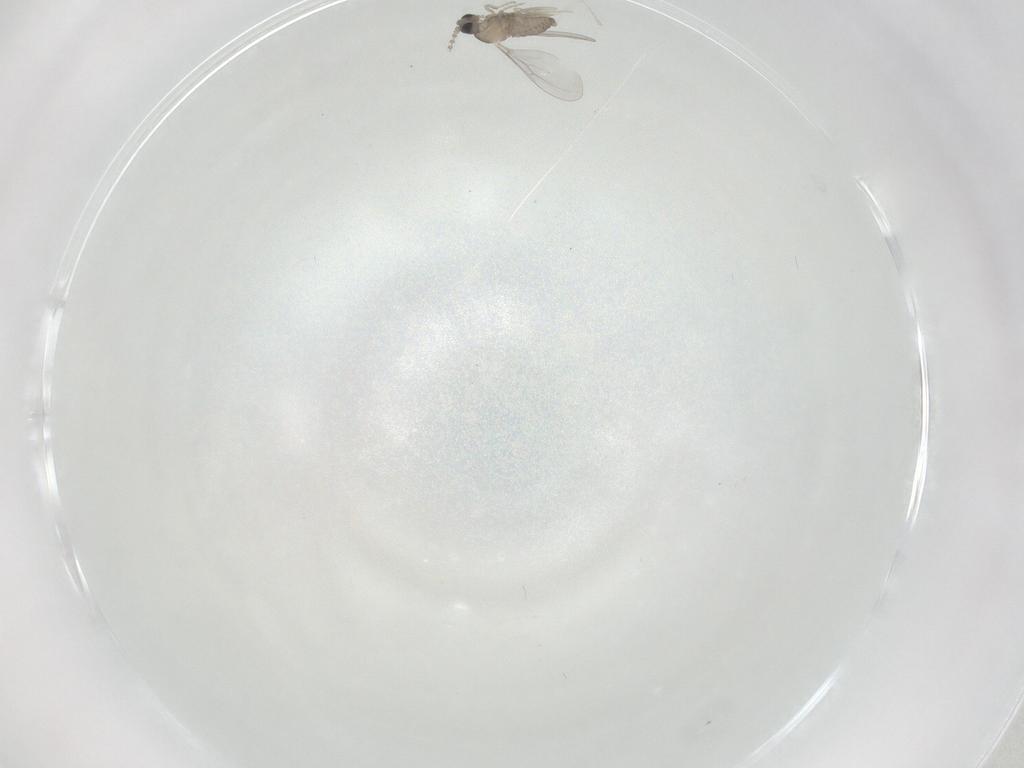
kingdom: Animalia
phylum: Arthropoda
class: Insecta
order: Diptera
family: Cecidomyiidae
